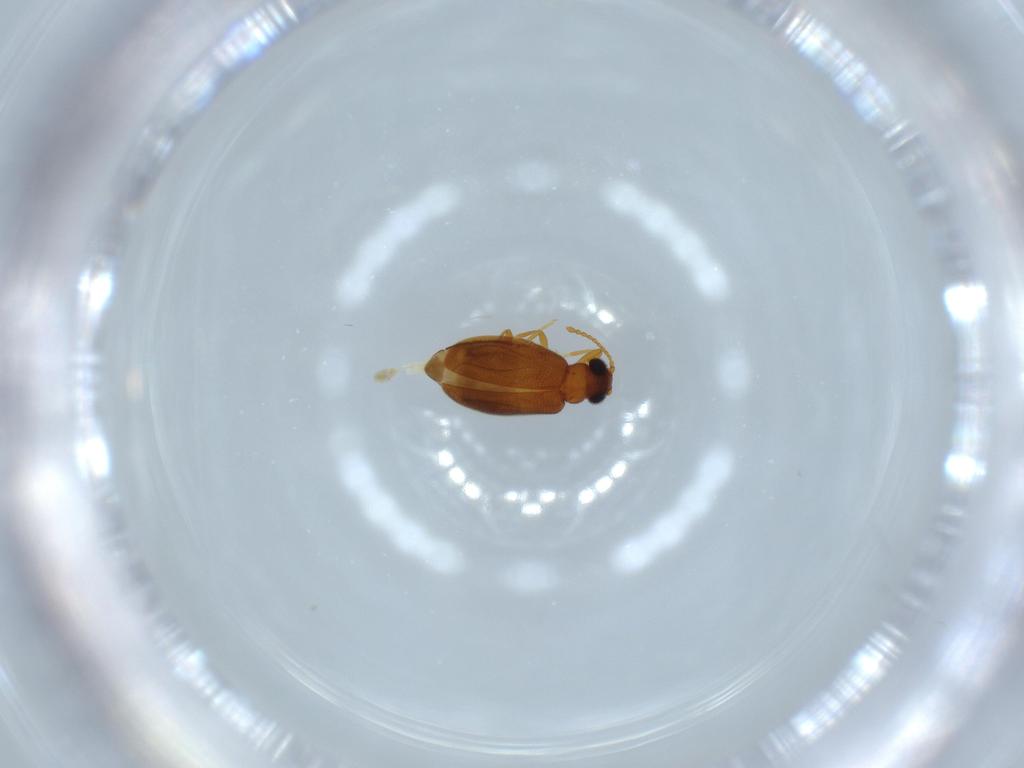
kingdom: Animalia
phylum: Arthropoda
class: Insecta
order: Coleoptera
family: Aderidae
